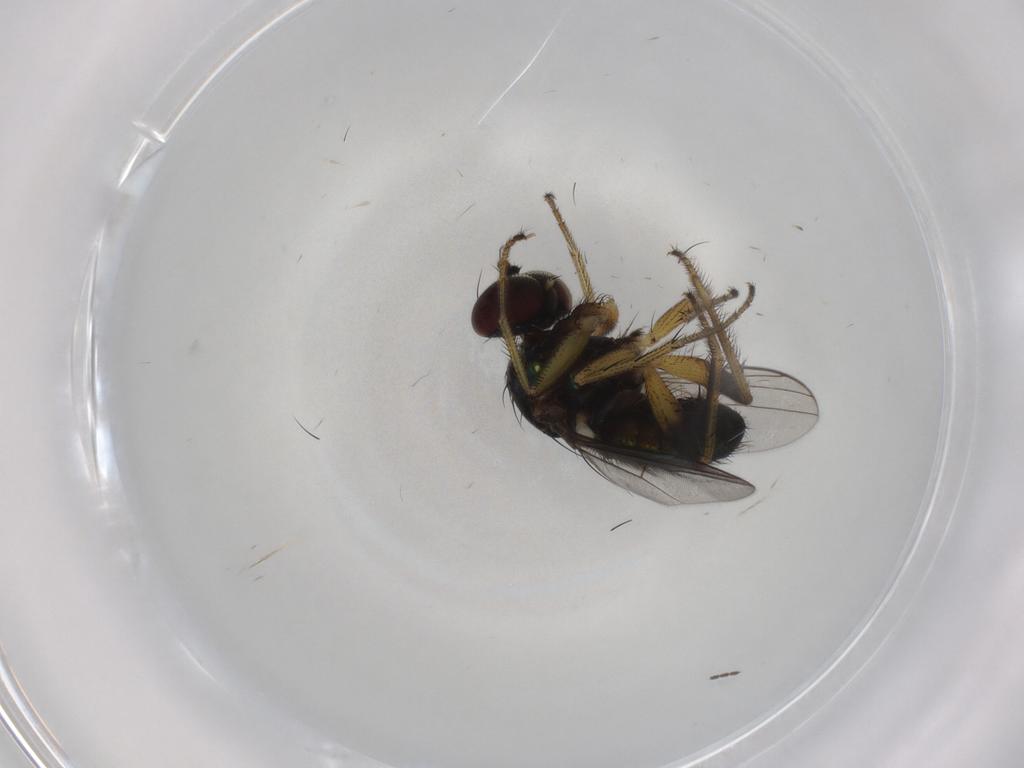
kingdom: Animalia
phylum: Arthropoda
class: Insecta
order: Diptera
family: Dolichopodidae
